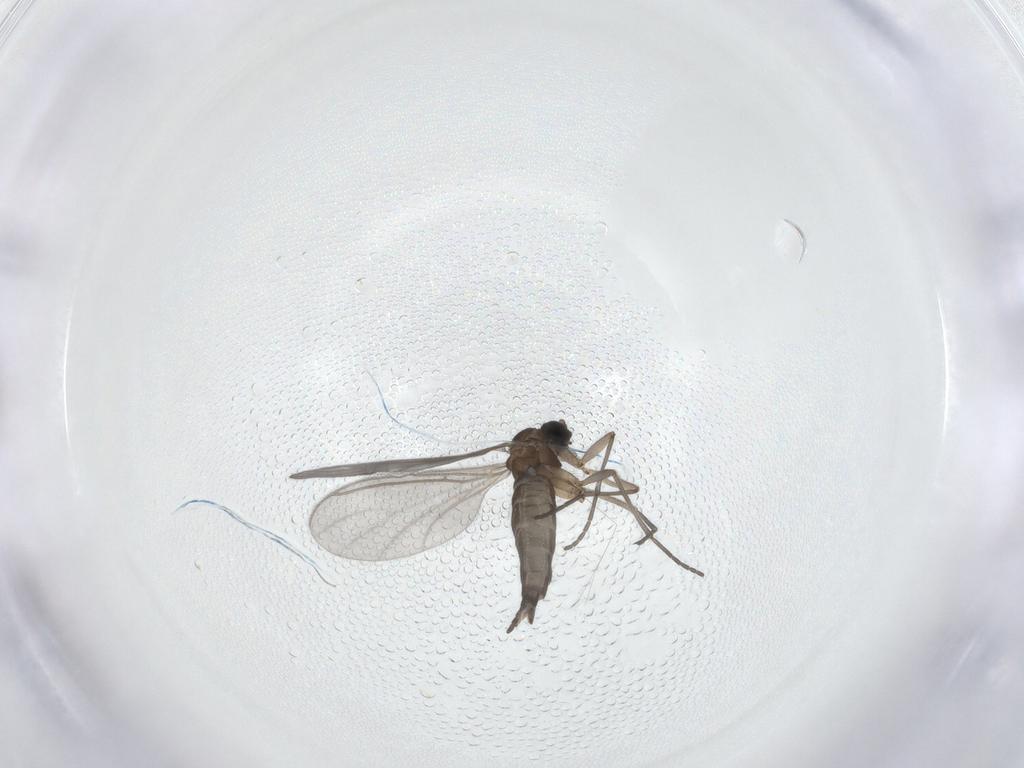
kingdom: Animalia
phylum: Arthropoda
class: Insecta
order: Diptera
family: Sciaridae
